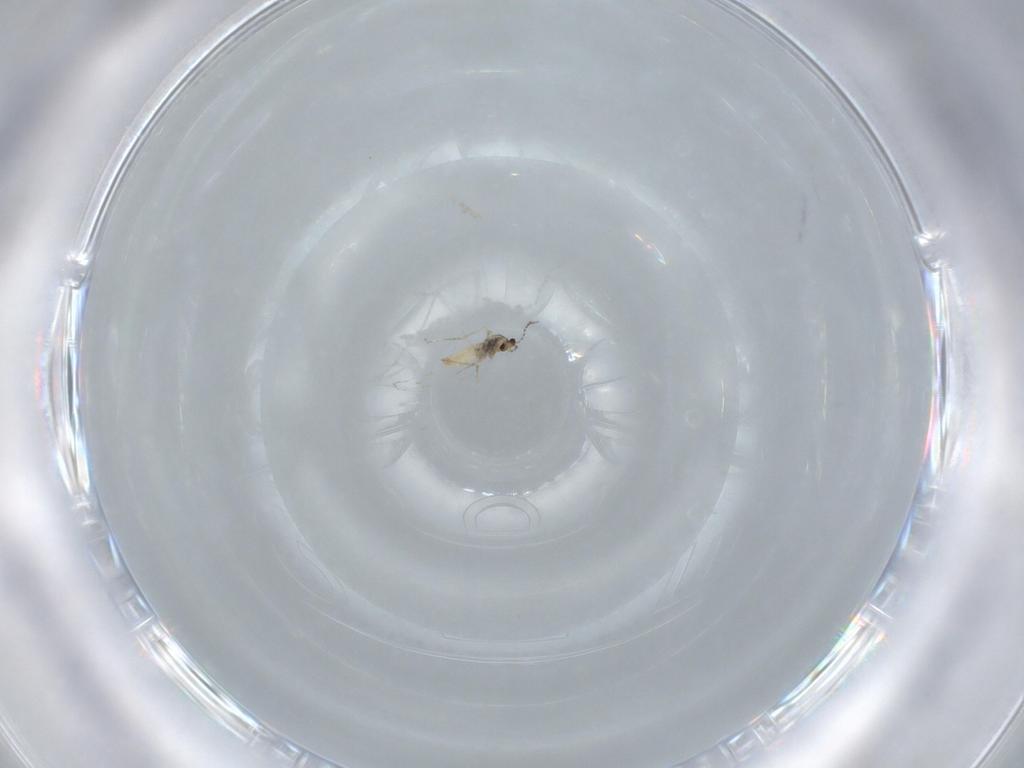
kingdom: Animalia
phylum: Arthropoda
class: Insecta
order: Diptera
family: Cecidomyiidae
